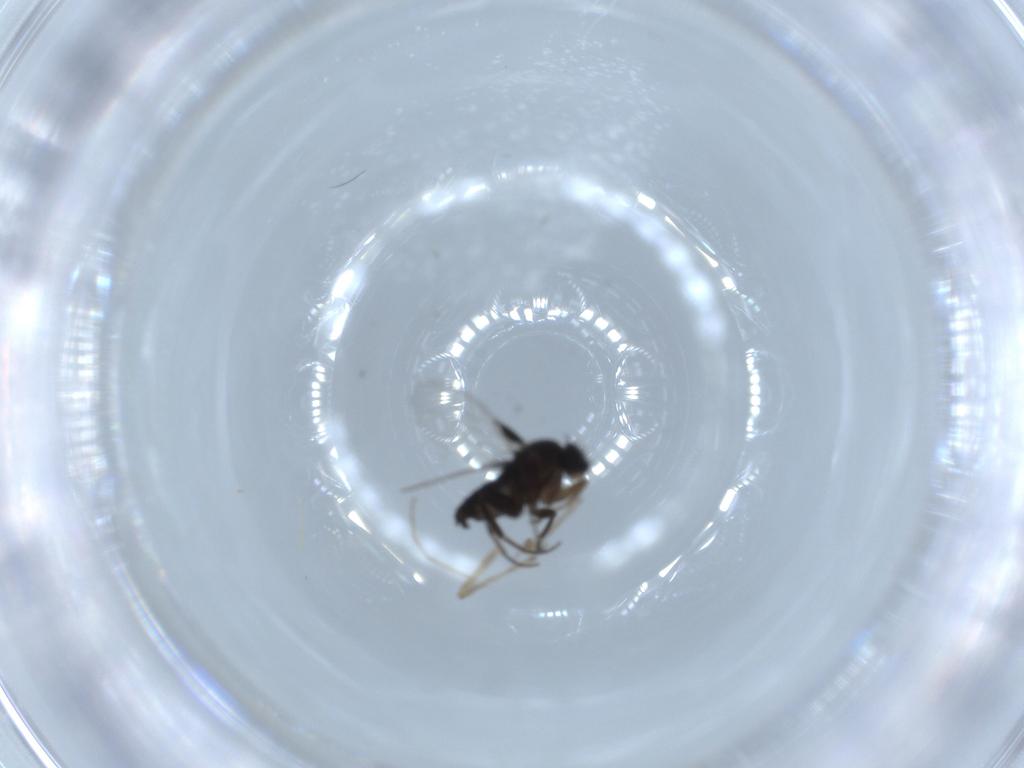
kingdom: Animalia
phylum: Arthropoda
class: Insecta
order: Diptera
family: Phoridae
